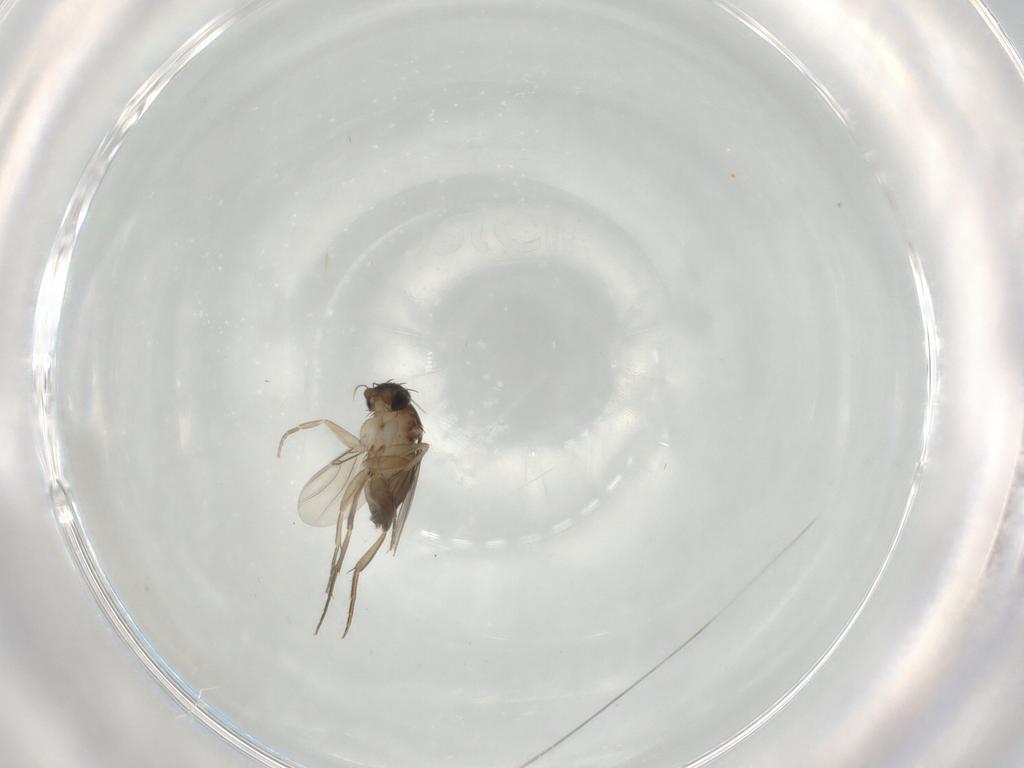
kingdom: Animalia
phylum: Arthropoda
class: Insecta
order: Diptera
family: Phoridae
